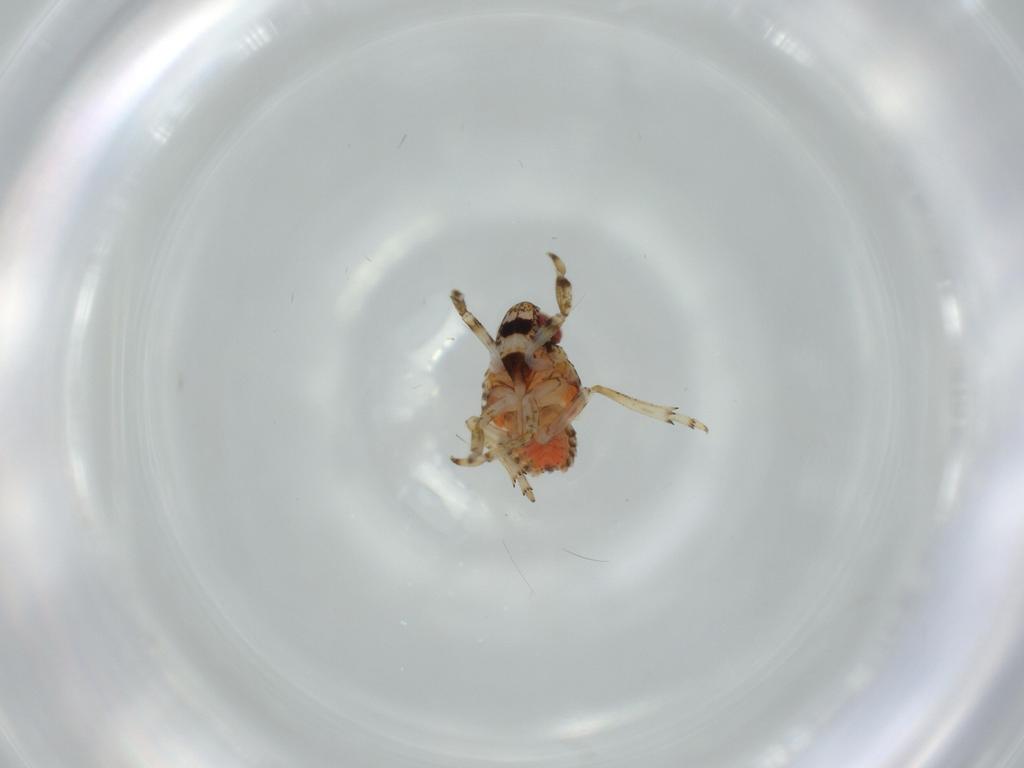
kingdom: Animalia
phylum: Arthropoda
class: Insecta
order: Hemiptera
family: Issidae
